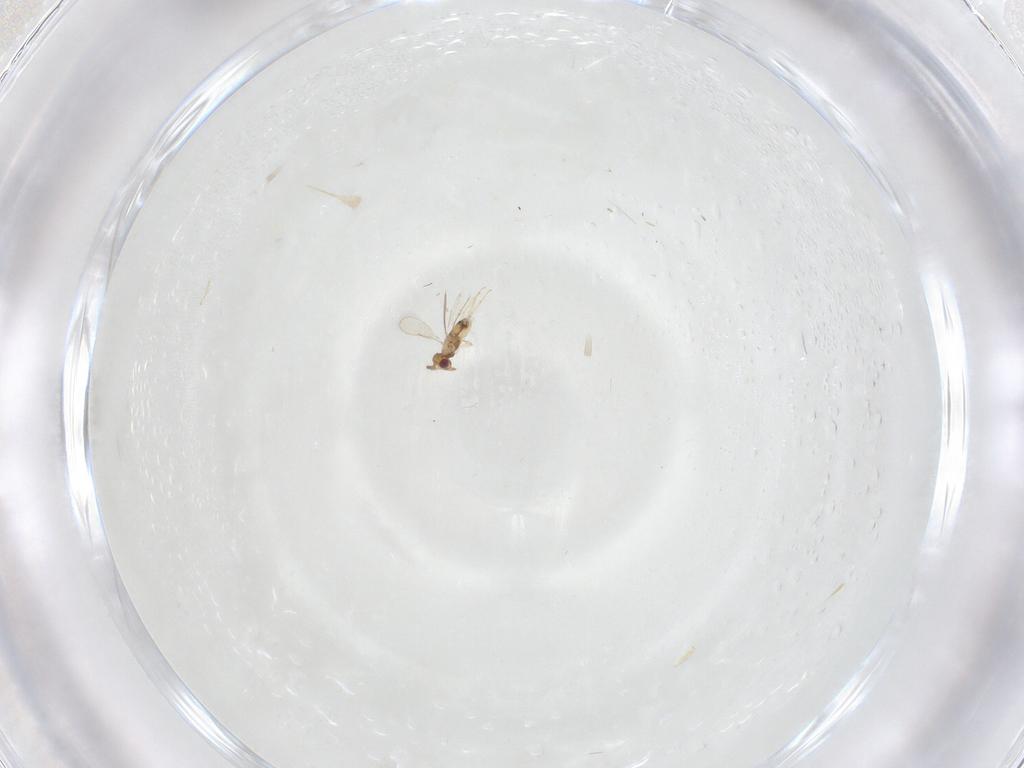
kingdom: Animalia
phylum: Arthropoda
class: Insecta
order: Hymenoptera
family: Aphelinidae
